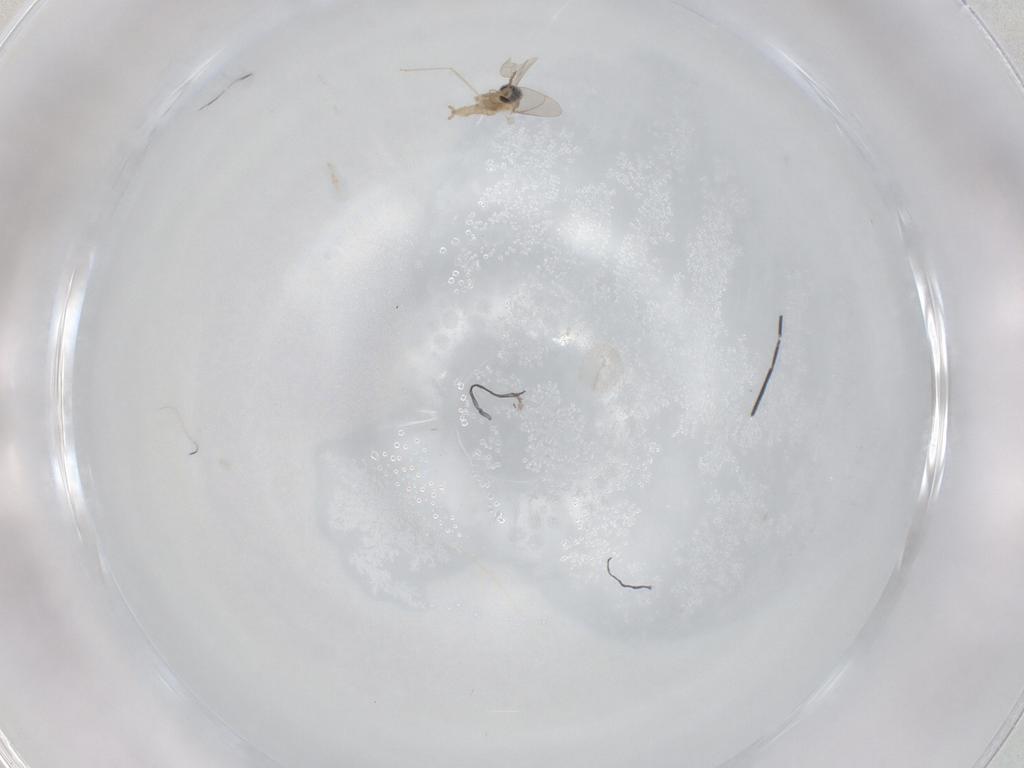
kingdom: Animalia
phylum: Arthropoda
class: Insecta
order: Diptera
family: Cecidomyiidae
